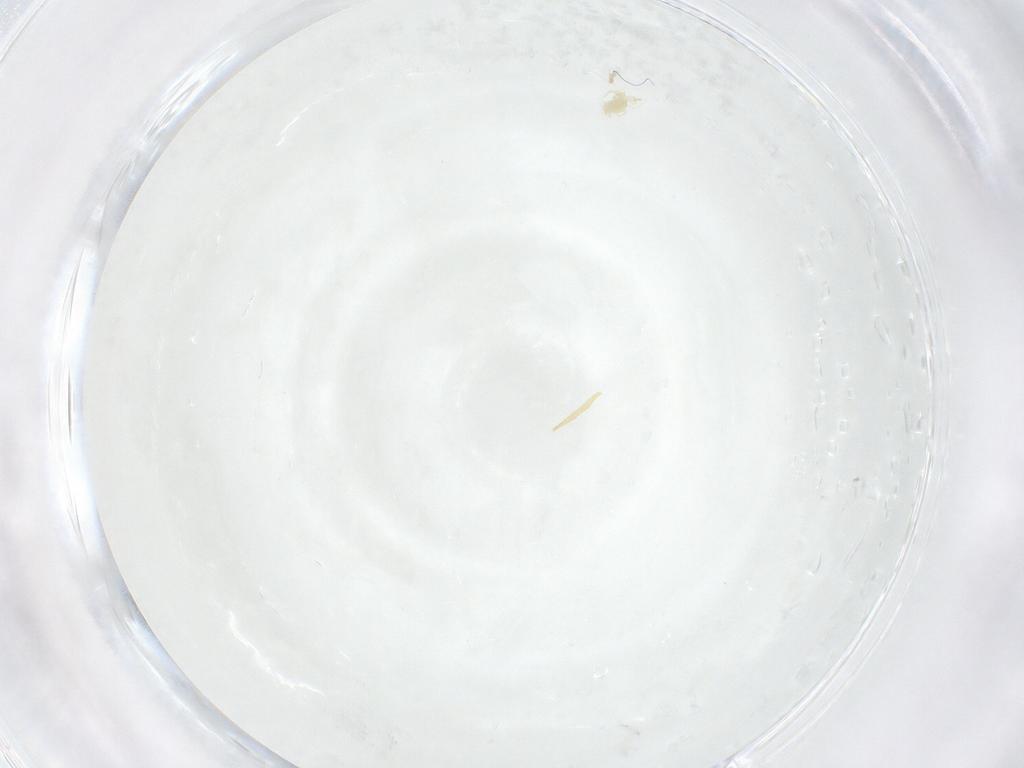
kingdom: Animalia
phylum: Arthropoda
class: Arachnida
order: Mesostigmata
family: Phytoseiidae
